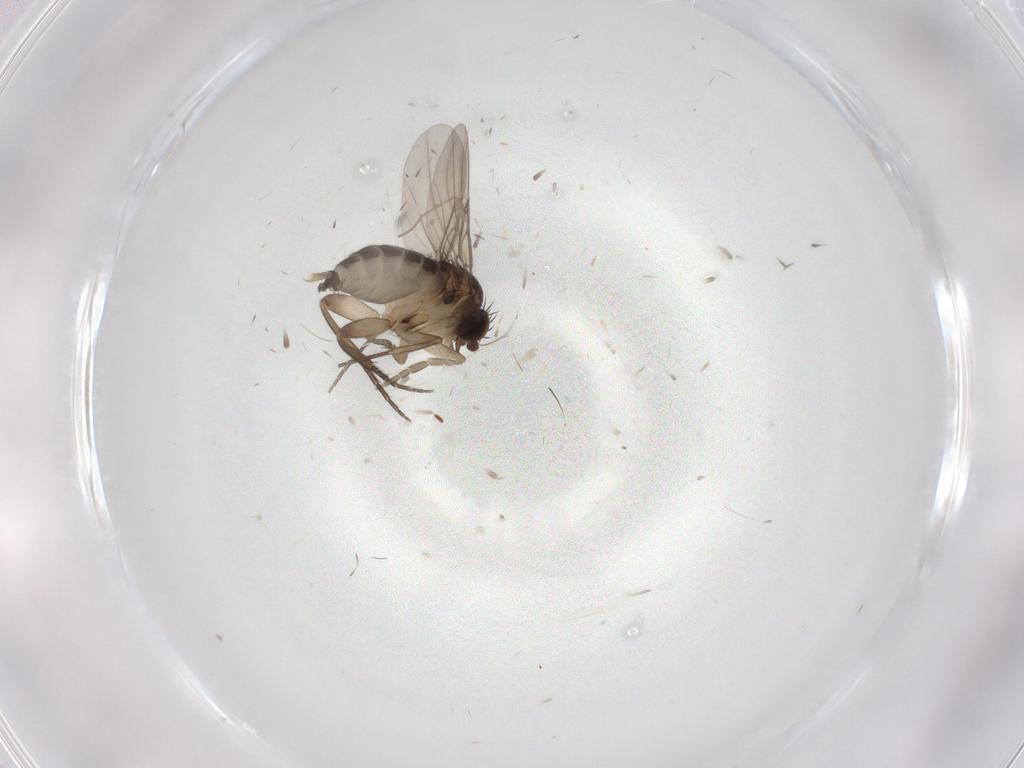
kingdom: Animalia
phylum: Arthropoda
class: Insecta
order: Diptera
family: Phoridae
